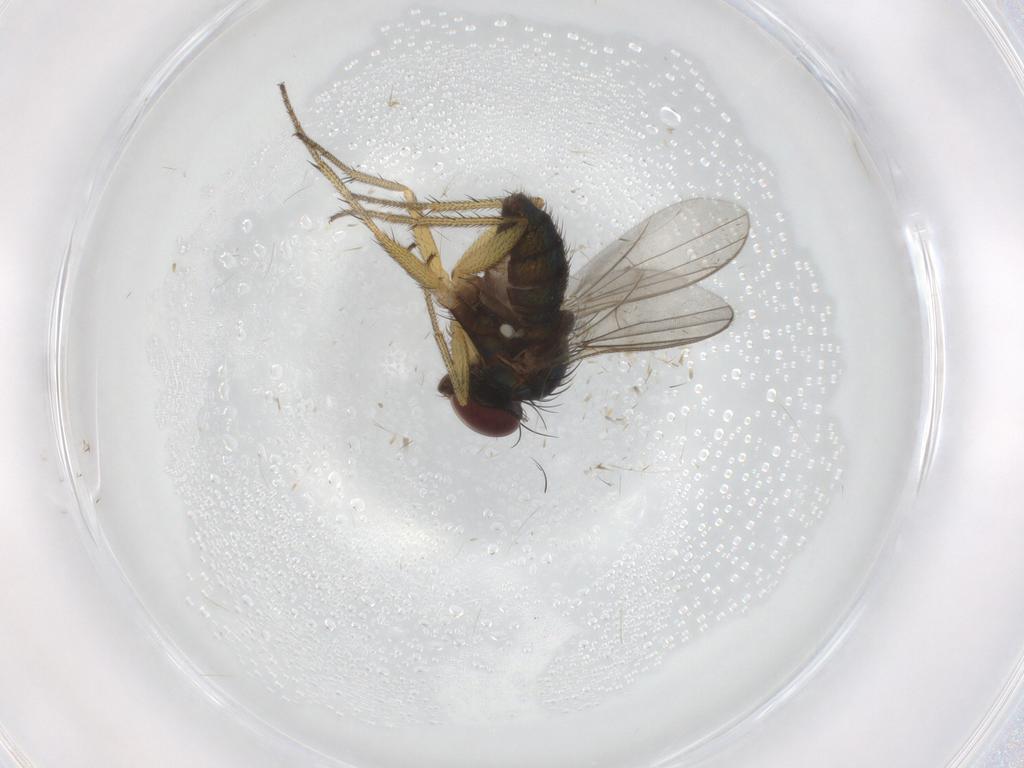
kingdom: Animalia
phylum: Arthropoda
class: Insecta
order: Diptera
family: Chironomidae
